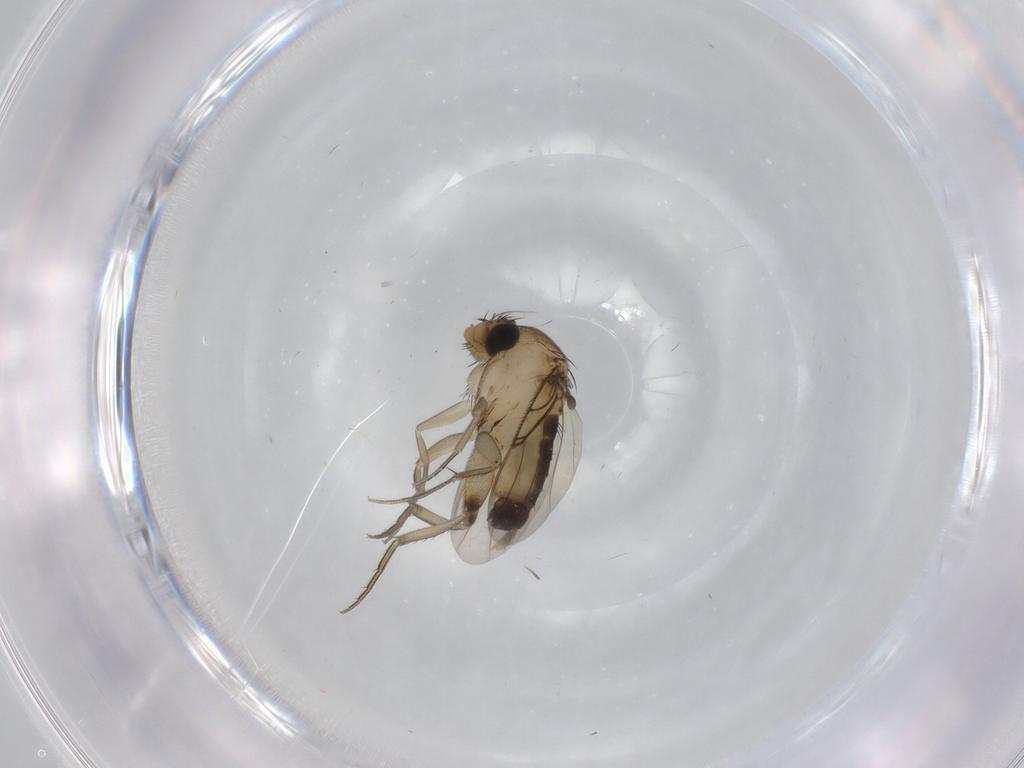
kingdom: Animalia
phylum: Arthropoda
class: Insecta
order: Diptera
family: Phoridae
